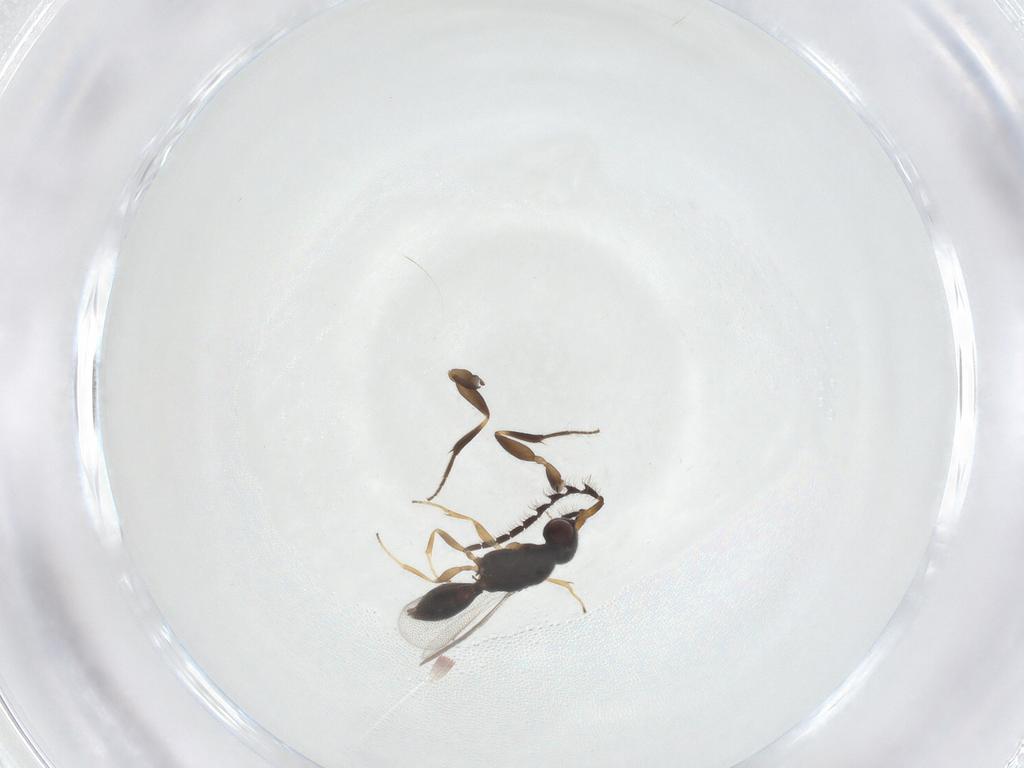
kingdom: Animalia
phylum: Arthropoda
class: Insecta
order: Hymenoptera
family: Megaspilidae
